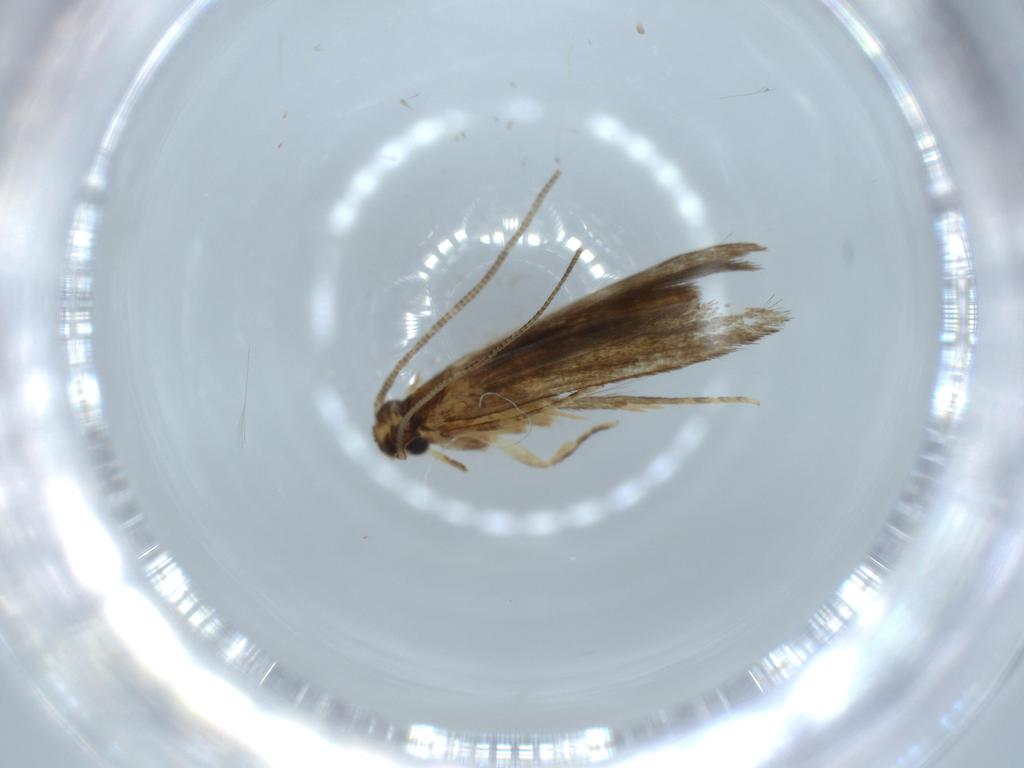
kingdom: Animalia
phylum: Arthropoda
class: Insecta
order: Lepidoptera
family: Tineidae
